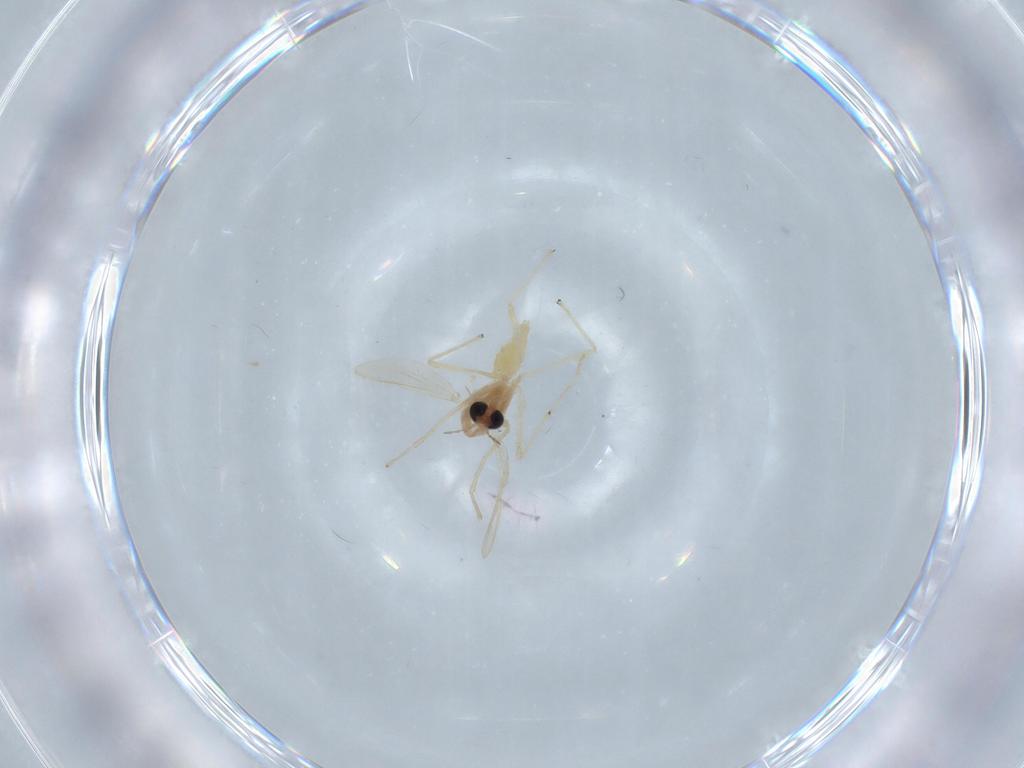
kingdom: Animalia
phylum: Arthropoda
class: Insecta
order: Diptera
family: Chironomidae
